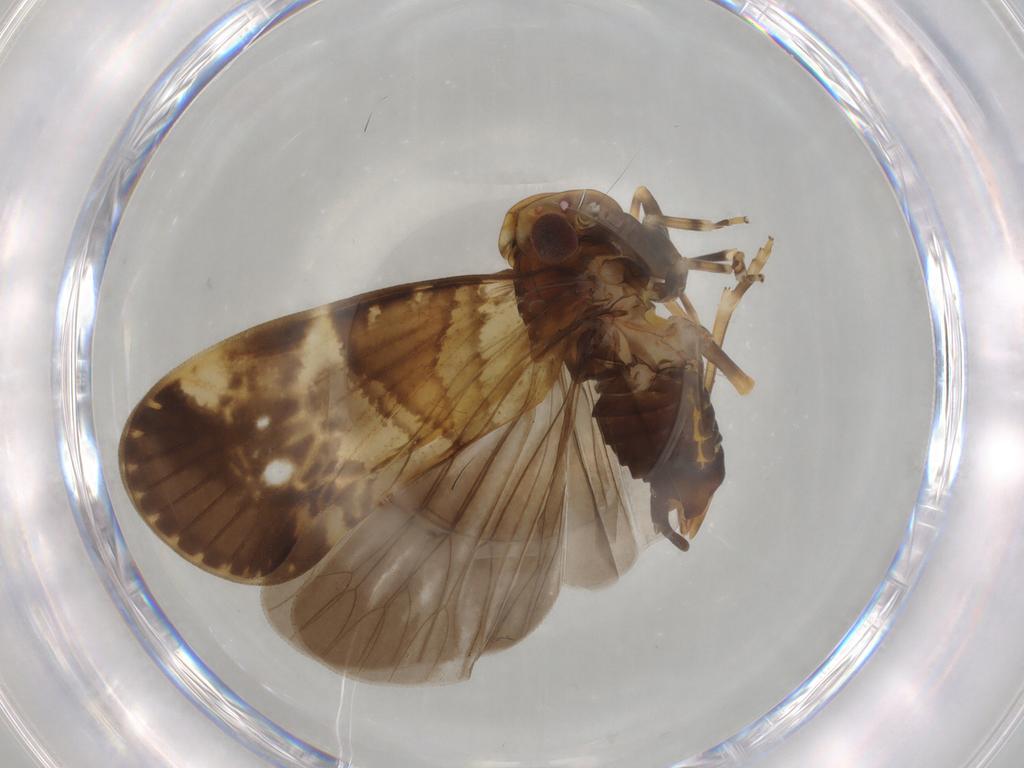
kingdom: Animalia
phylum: Arthropoda
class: Insecta
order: Hemiptera
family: Cixiidae
